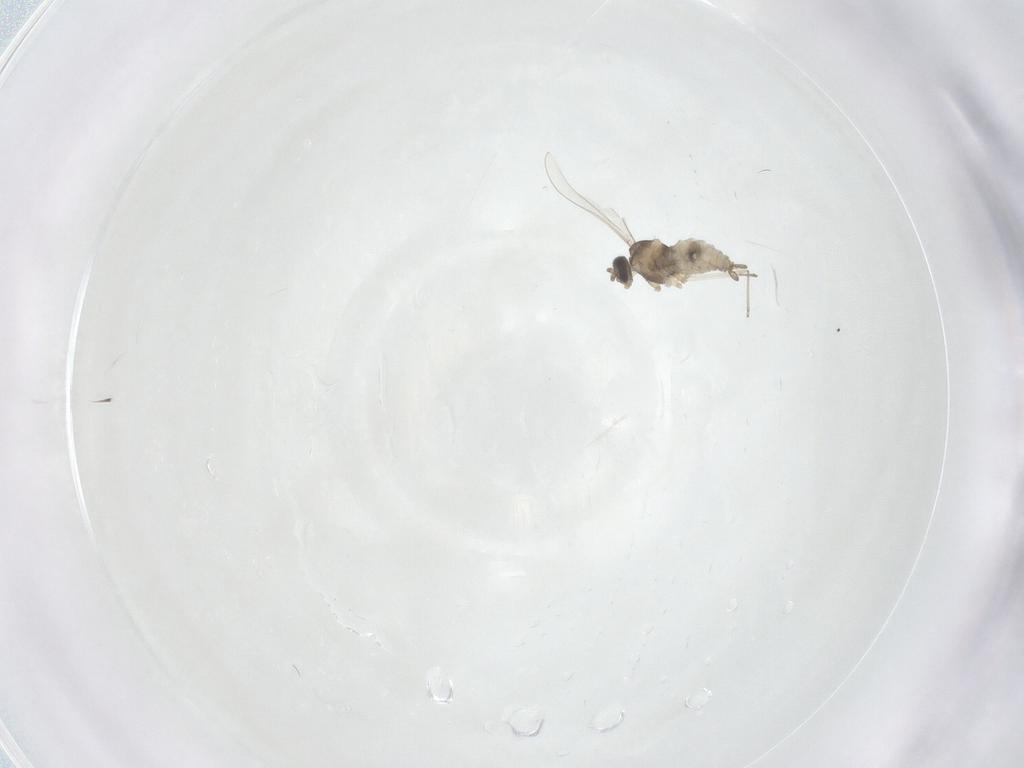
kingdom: Animalia
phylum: Arthropoda
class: Insecta
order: Diptera
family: Cecidomyiidae
